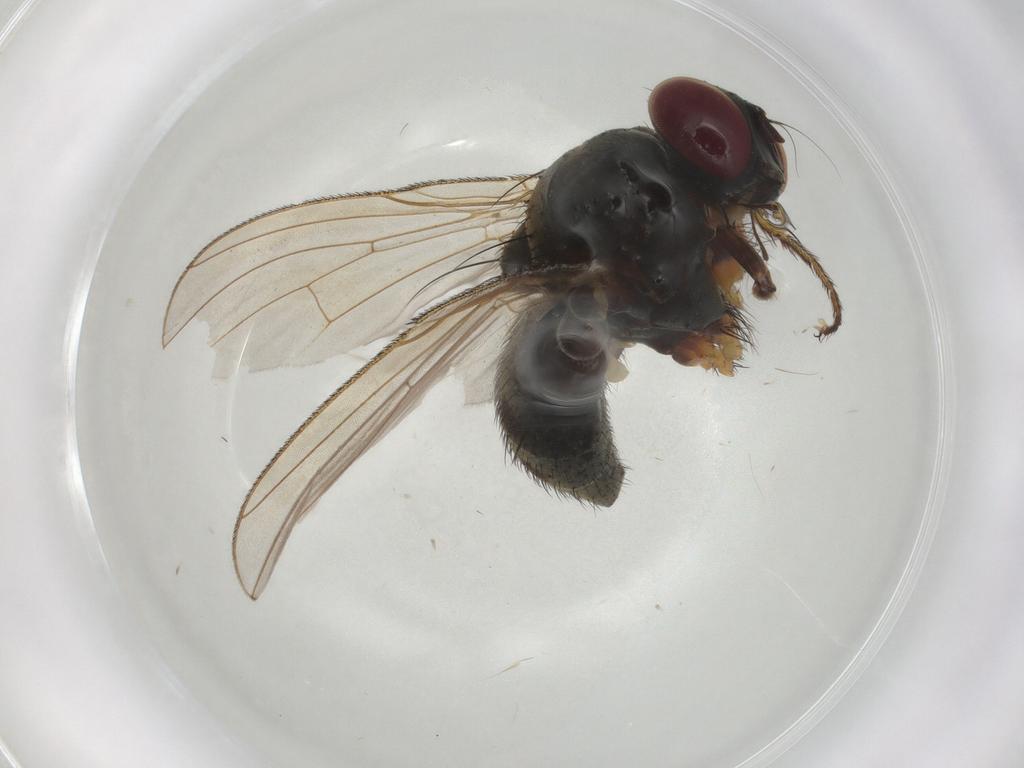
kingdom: Animalia
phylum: Arthropoda
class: Insecta
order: Diptera
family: Muscidae
